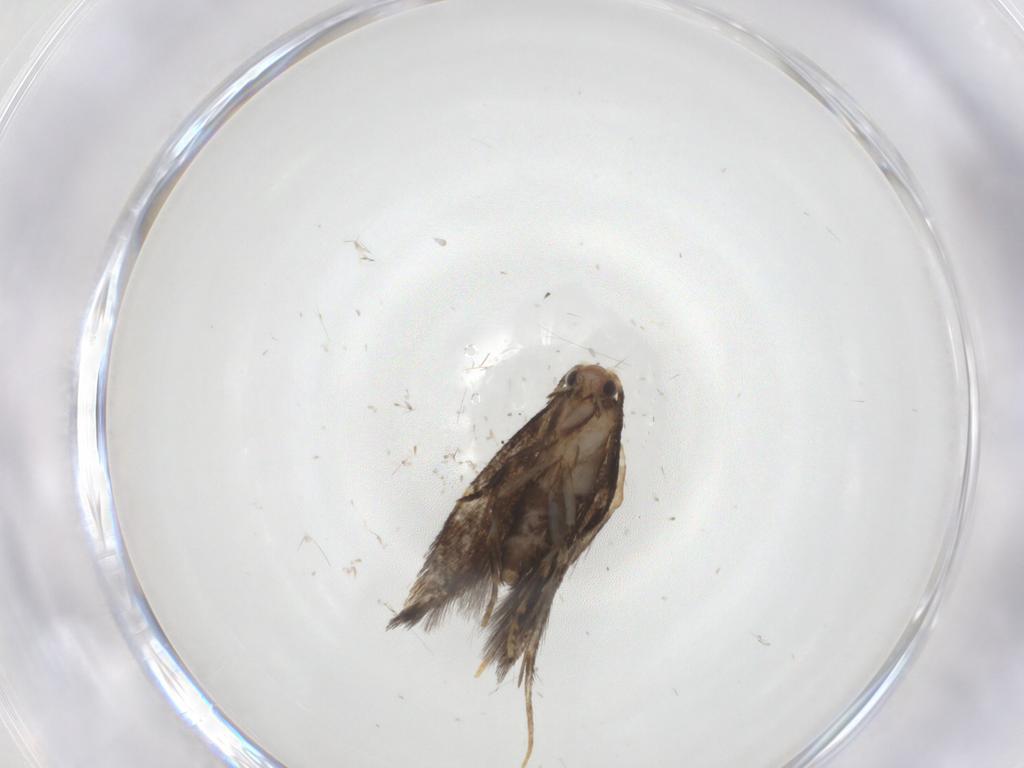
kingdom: Animalia
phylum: Arthropoda
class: Insecta
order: Lepidoptera
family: Tineidae
